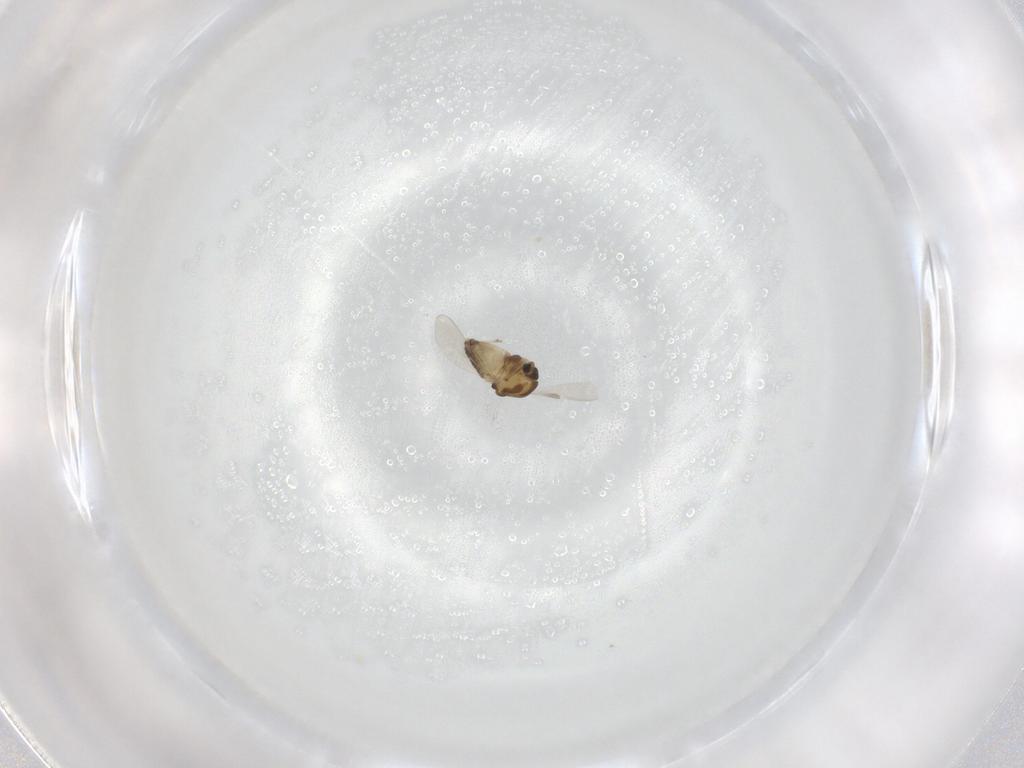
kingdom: Animalia
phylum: Arthropoda
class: Insecta
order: Diptera
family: Chironomidae
